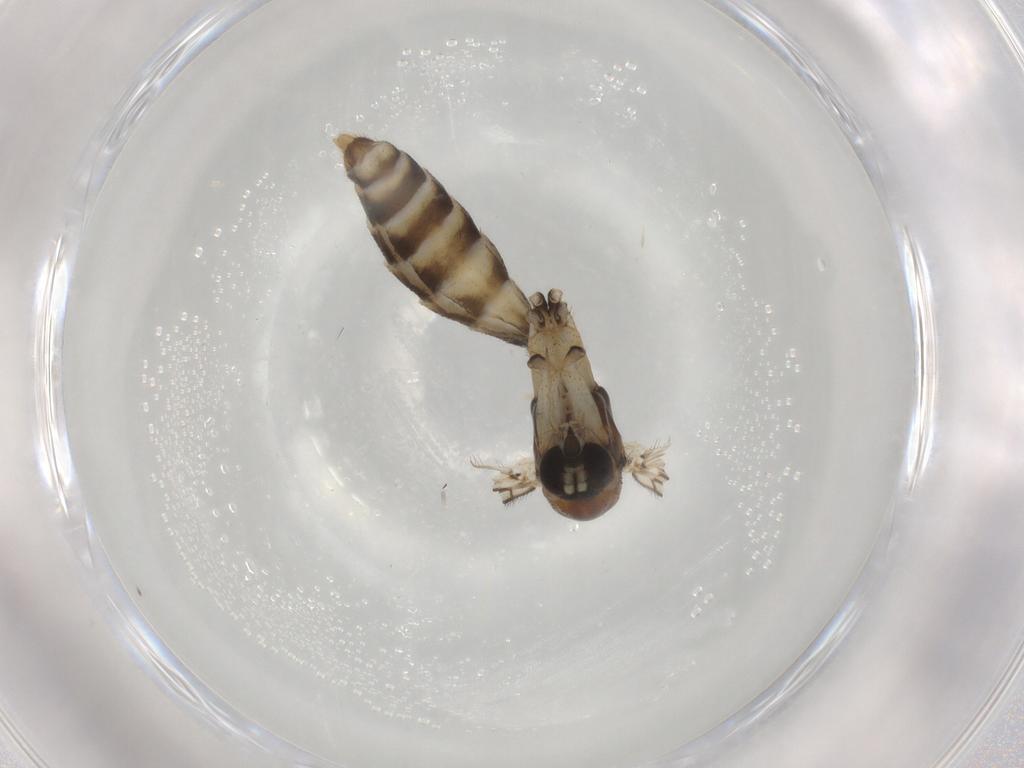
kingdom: Animalia
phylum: Arthropoda
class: Insecta
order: Diptera
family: Mycetophilidae
